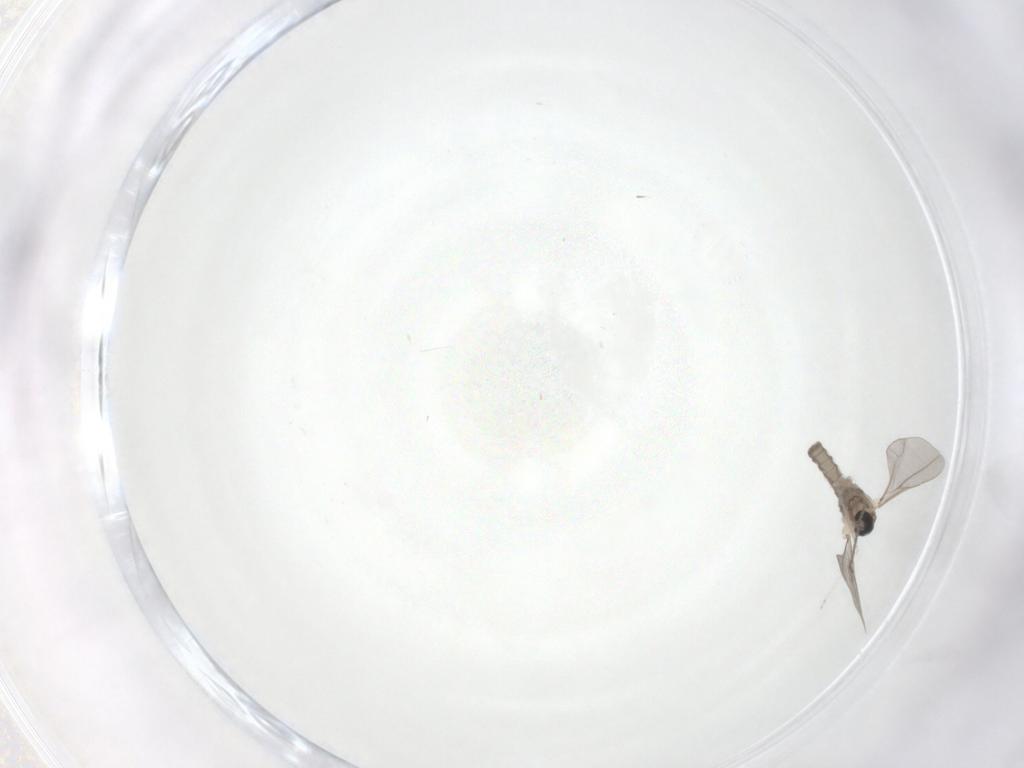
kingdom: Animalia
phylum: Arthropoda
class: Insecta
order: Diptera
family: Cecidomyiidae
